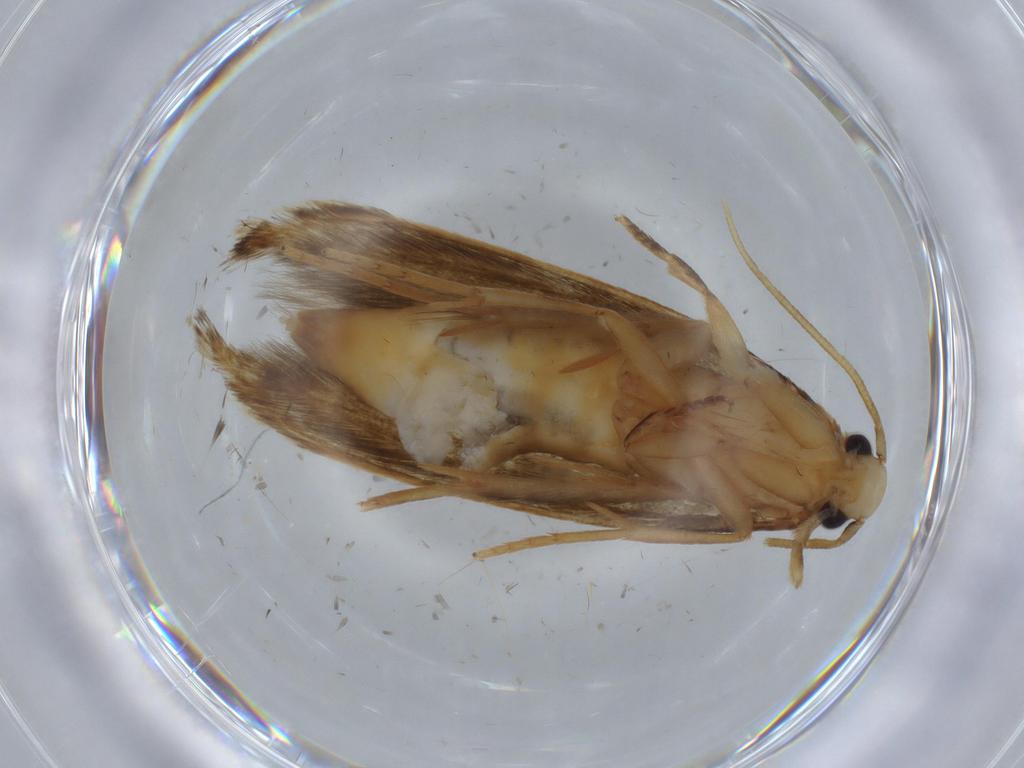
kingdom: Animalia
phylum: Arthropoda
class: Insecta
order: Lepidoptera
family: Tineidae
